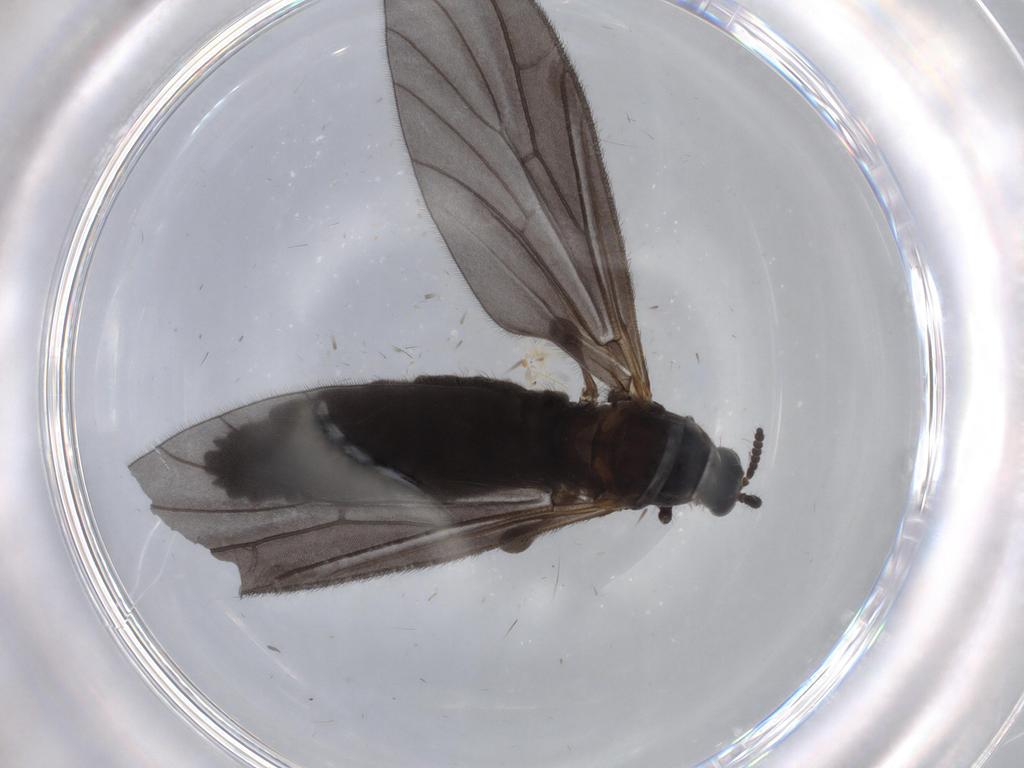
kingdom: Animalia
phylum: Arthropoda
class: Insecta
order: Diptera
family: Bibionidae
